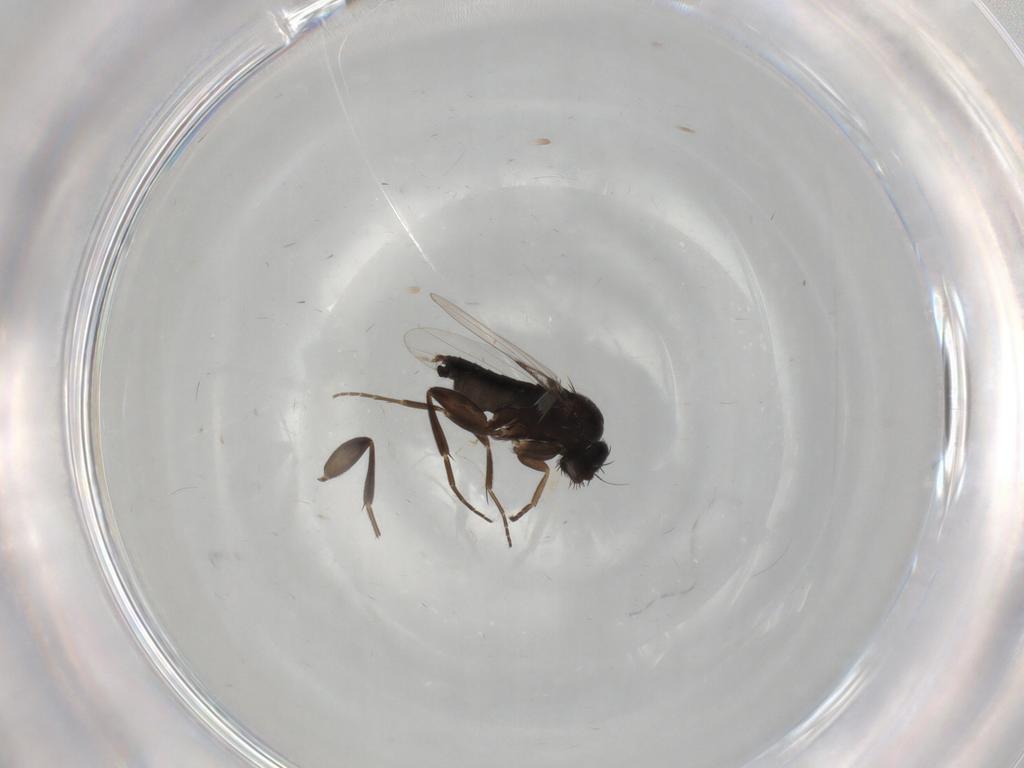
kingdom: Animalia
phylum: Arthropoda
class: Insecta
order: Diptera
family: Phoridae
